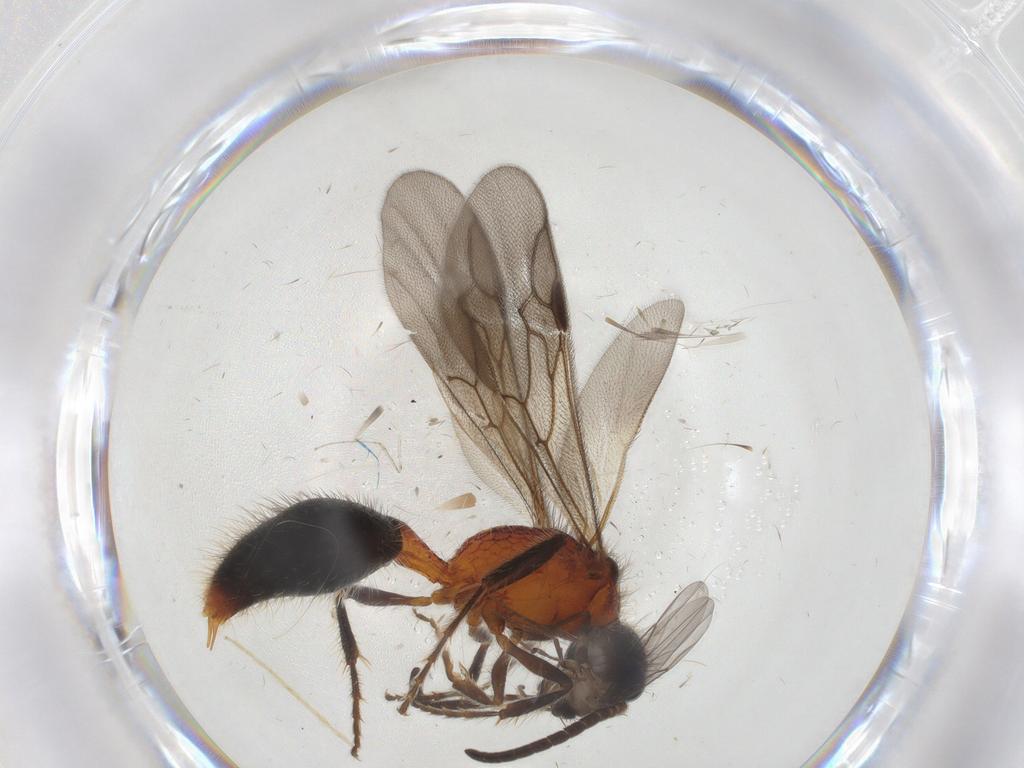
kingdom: Animalia
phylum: Arthropoda
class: Insecta
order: Hymenoptera
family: Mutillidae
